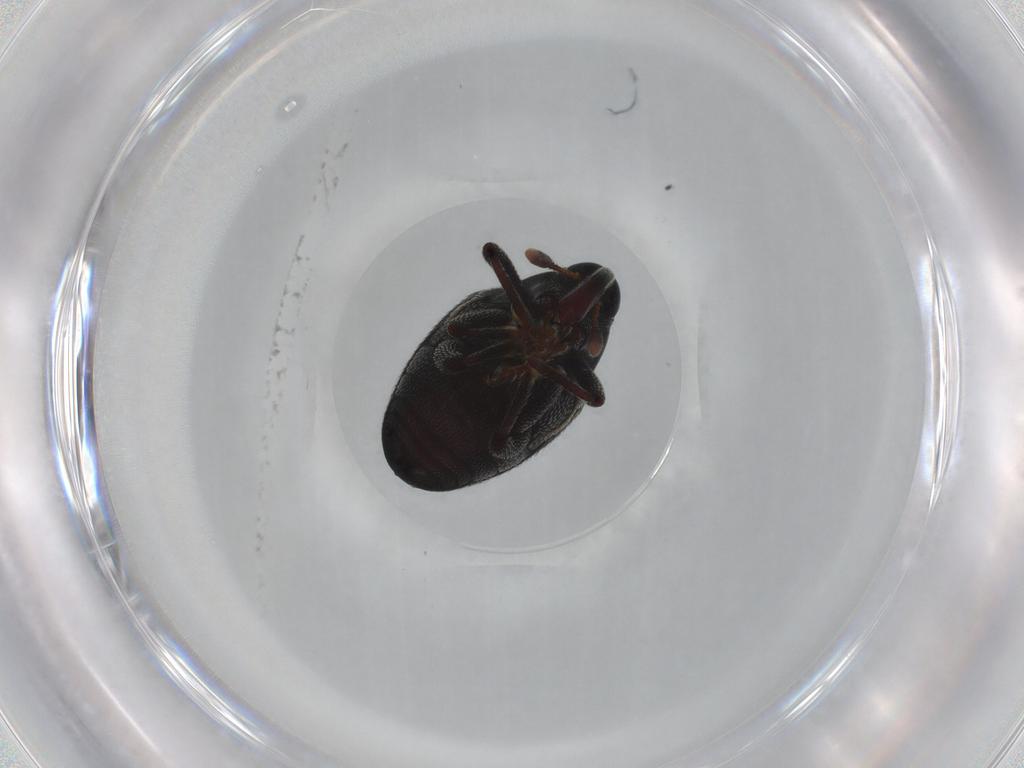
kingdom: Animalia
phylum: Arthropoda
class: Insecta
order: Coleoptera
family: Curculionidae
